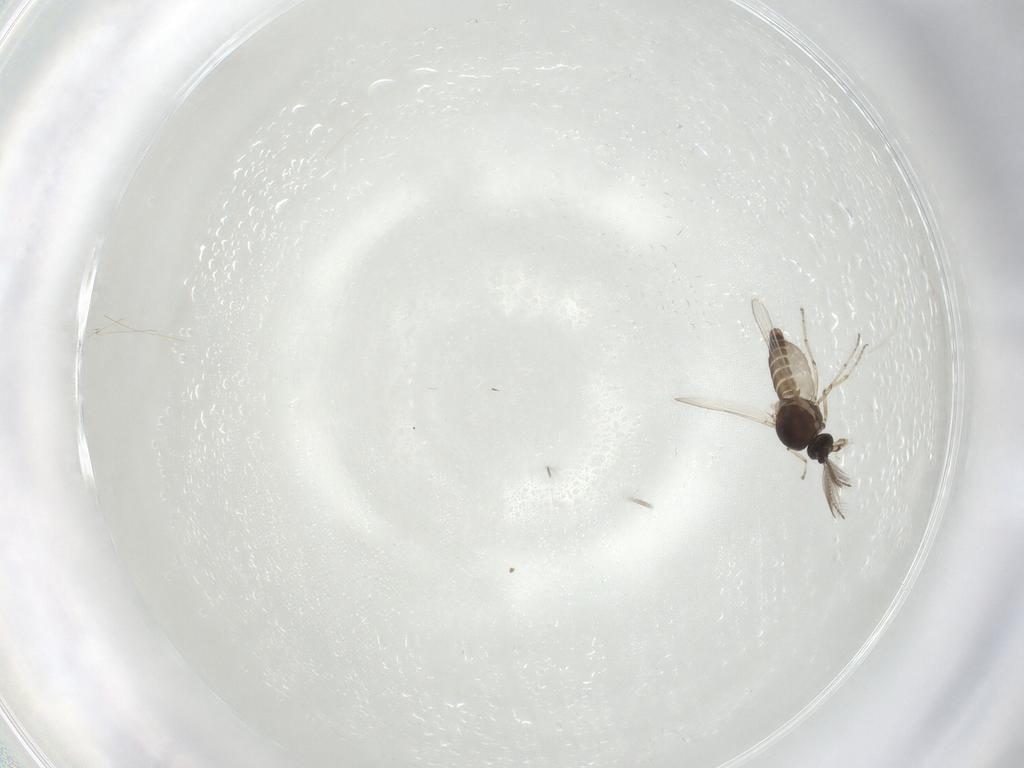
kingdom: Animalia
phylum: Arthropoda
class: Insecta
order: Diptera
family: Ceratopogonidae
